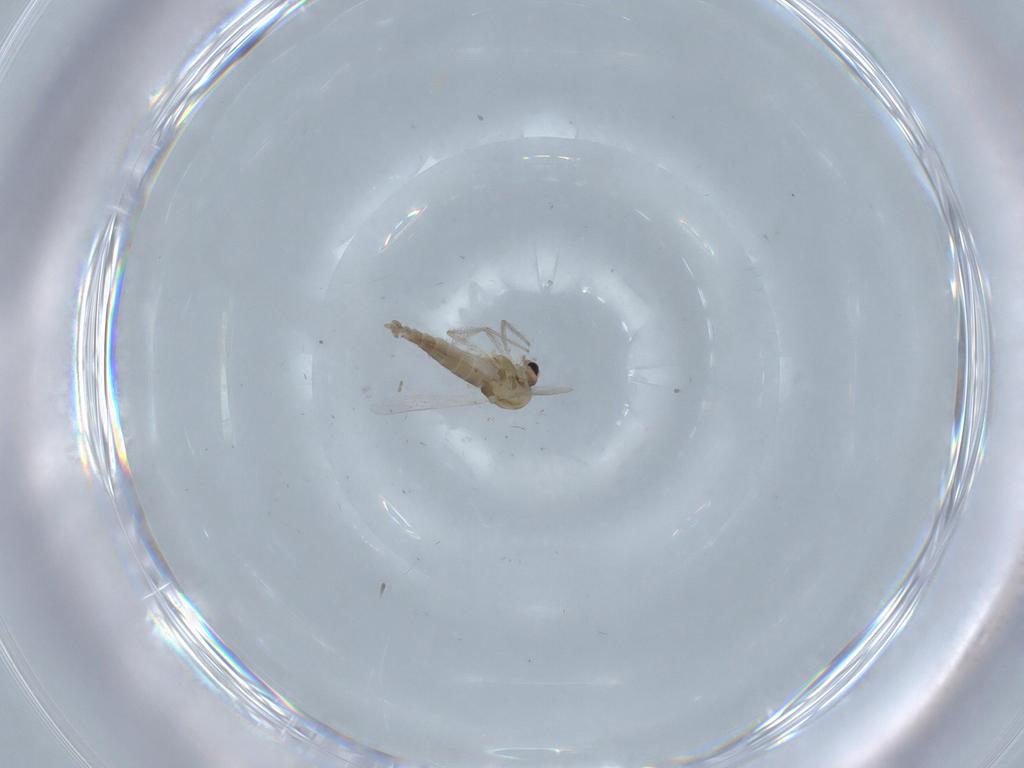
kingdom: Animalia
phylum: Arthropoda
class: Insecta
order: Diptera
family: Chironomidae
